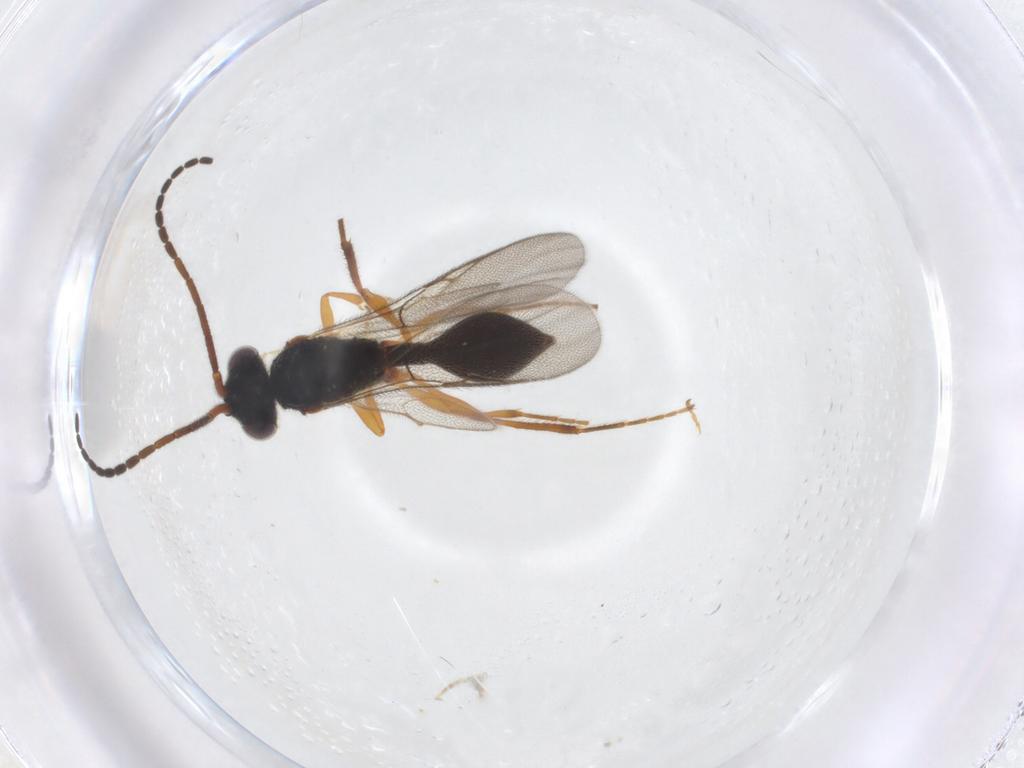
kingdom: Animalia
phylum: Arthropoda
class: Insecta
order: Hymenoptera
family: Diapriidae
